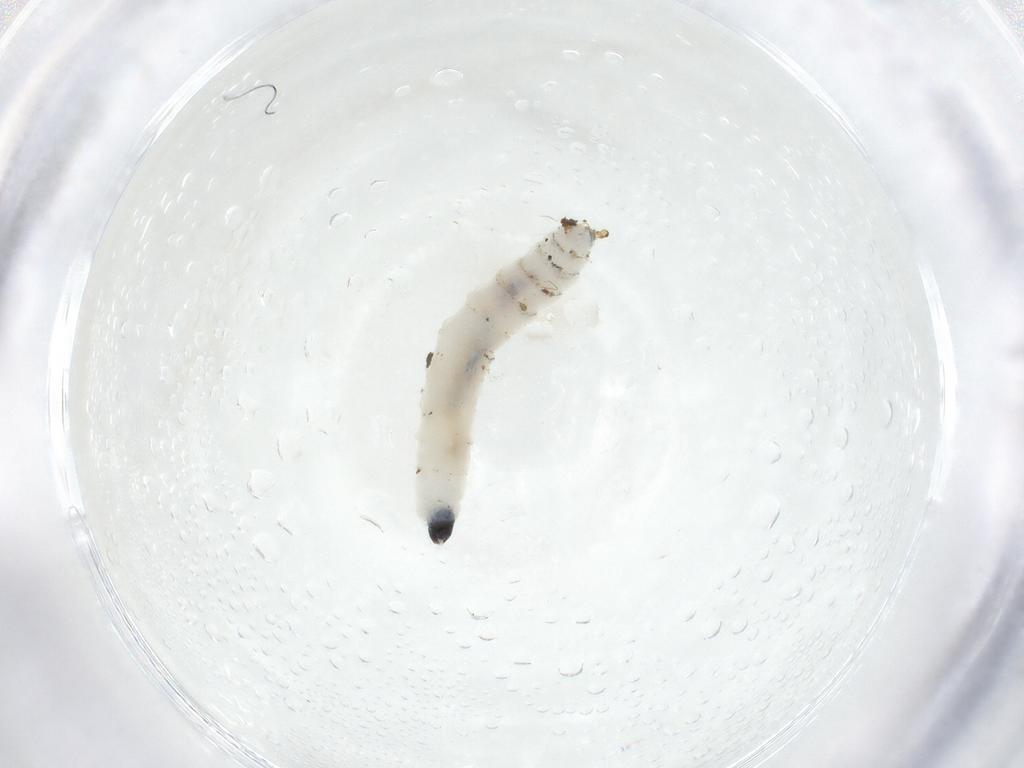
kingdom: Animalia
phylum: Arthropoda
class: Insecta
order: Diptera
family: Sciaridae
